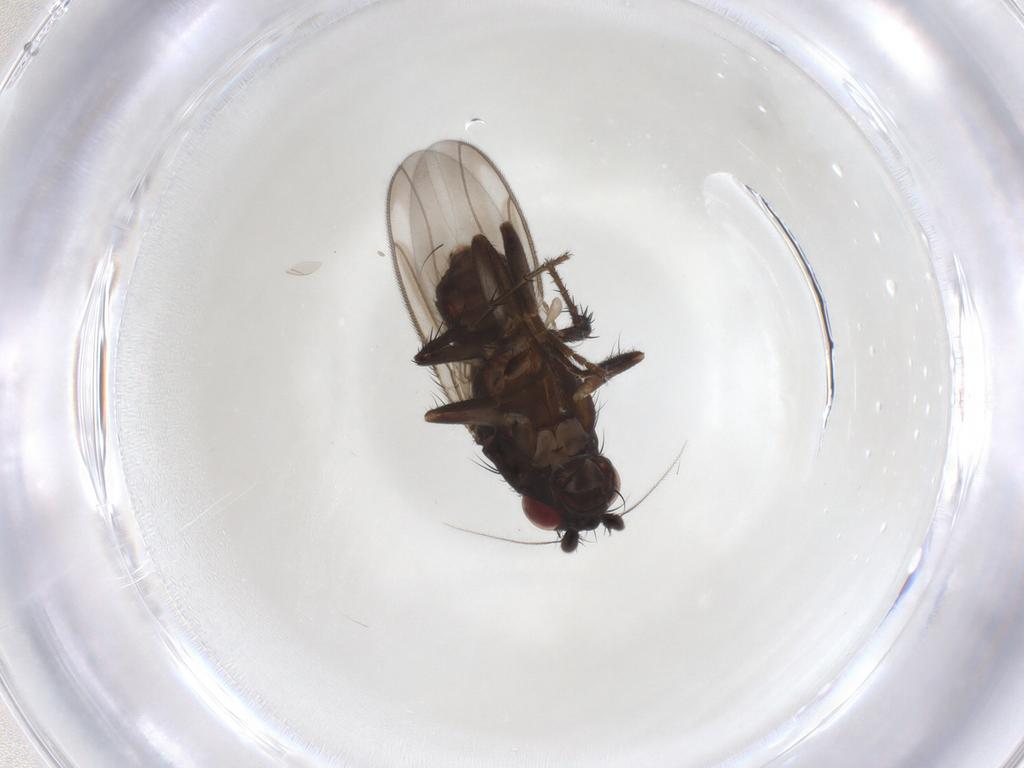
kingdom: Animalia
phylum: Arthropoda
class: Insecta
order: Diptera
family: Sphaeroceridae
